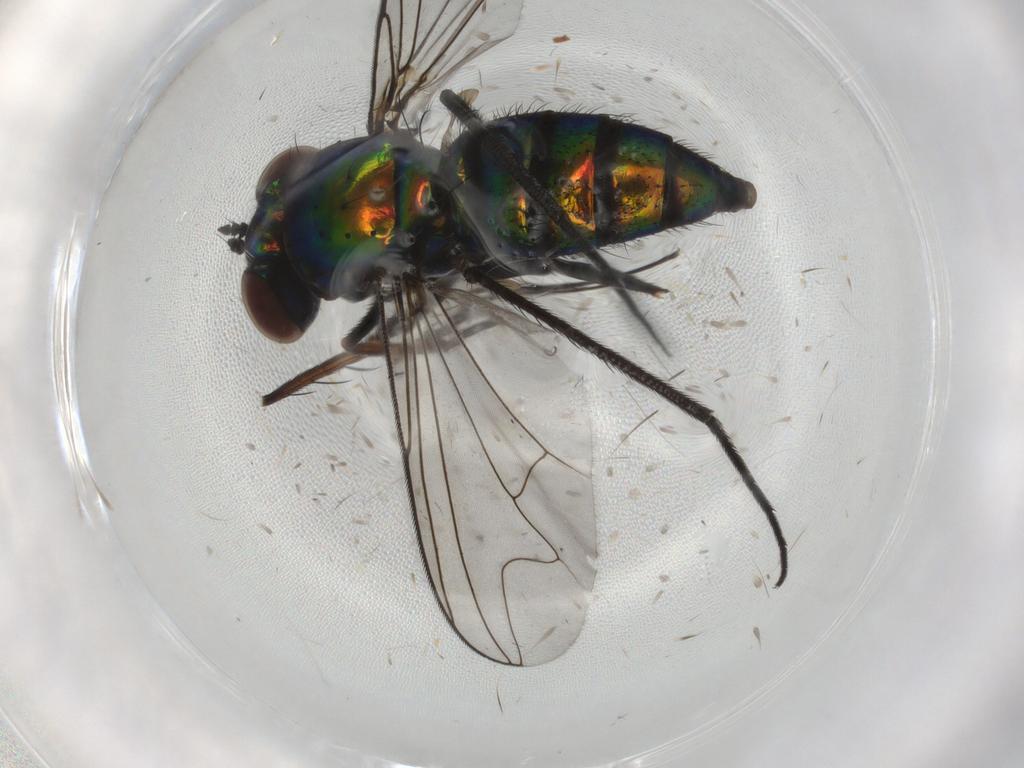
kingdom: Animalia
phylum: Arthropoda
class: Insecta
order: Diptera
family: Dolichopodidae
